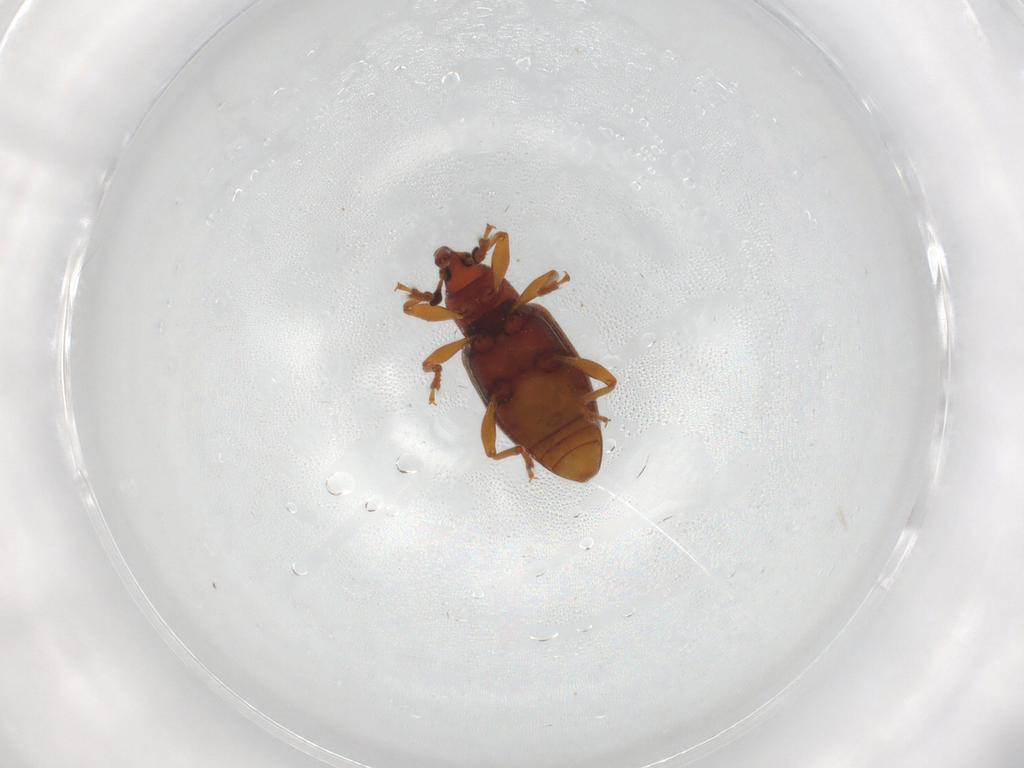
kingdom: Animalia
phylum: Arthropoda
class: Insecta
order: Coleoptera
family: Curculionidae
